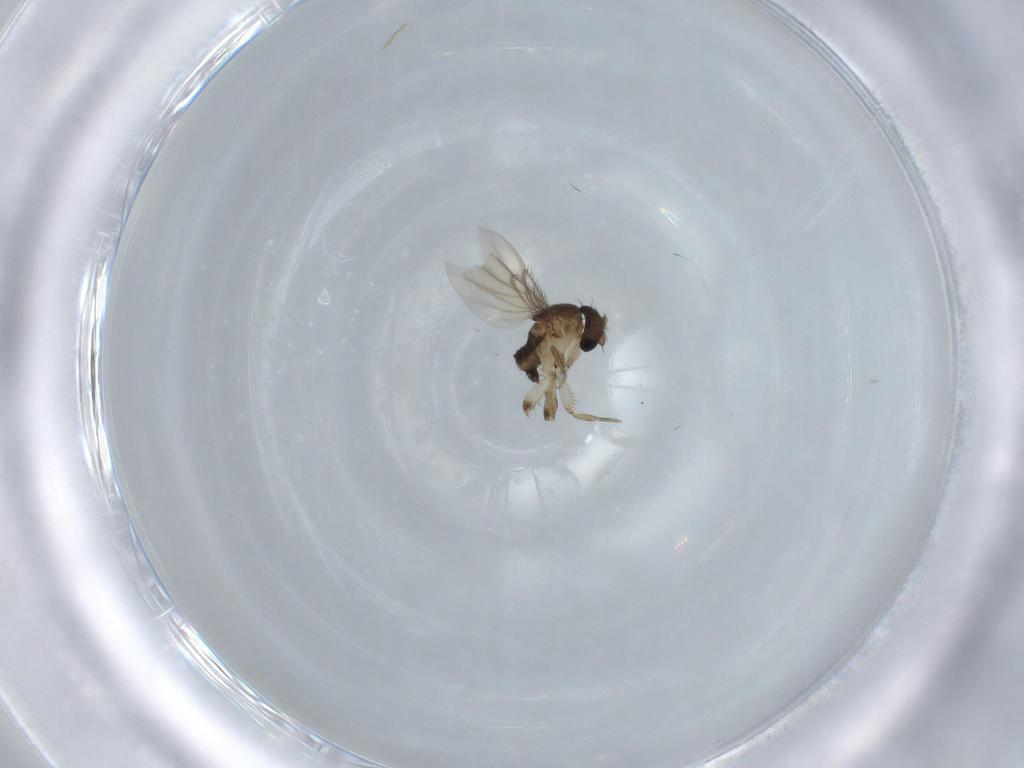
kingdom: Animalia
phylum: Arthropoda
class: Insecta
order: Diptera
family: Phoridae
